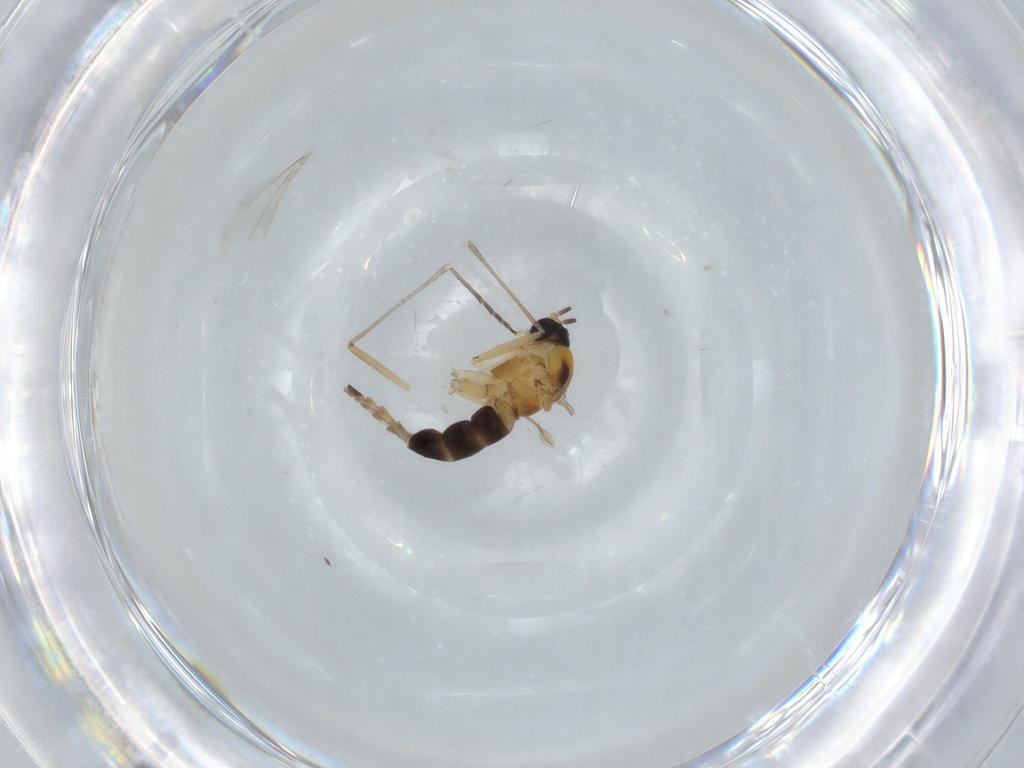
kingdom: Animalia
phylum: Arthropoda
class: Insecta
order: Diptera
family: Sciaridae
